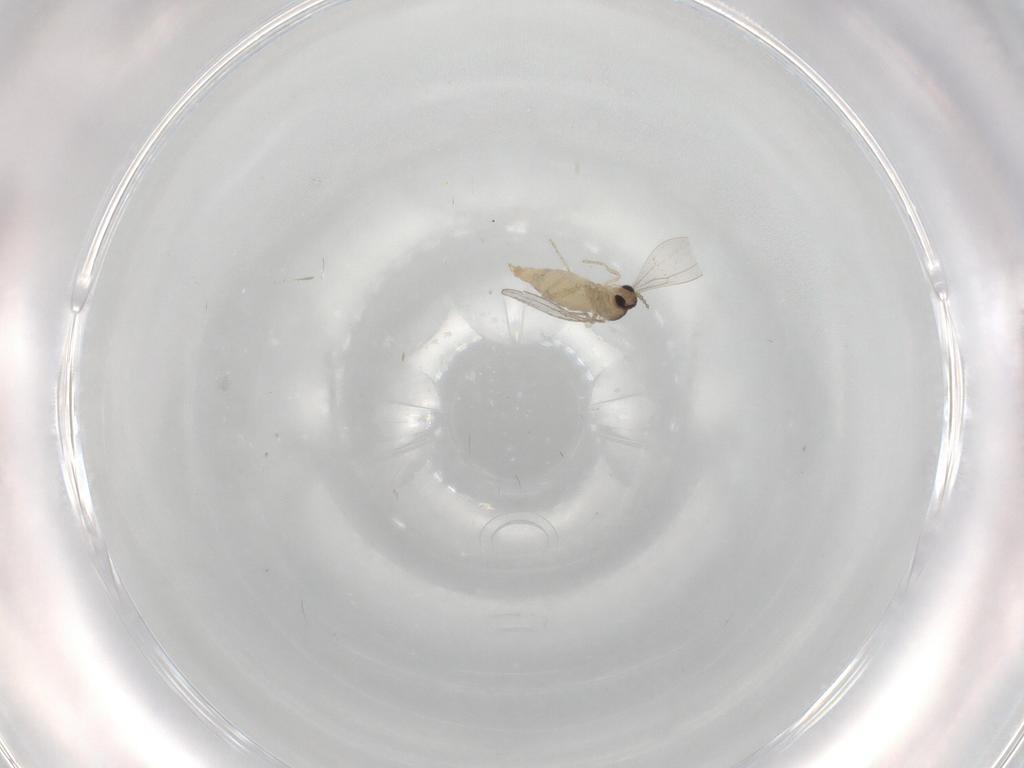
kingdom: Animalia
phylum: Arthropoda
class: Insecta
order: Diptera
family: Cecidomyiidae
